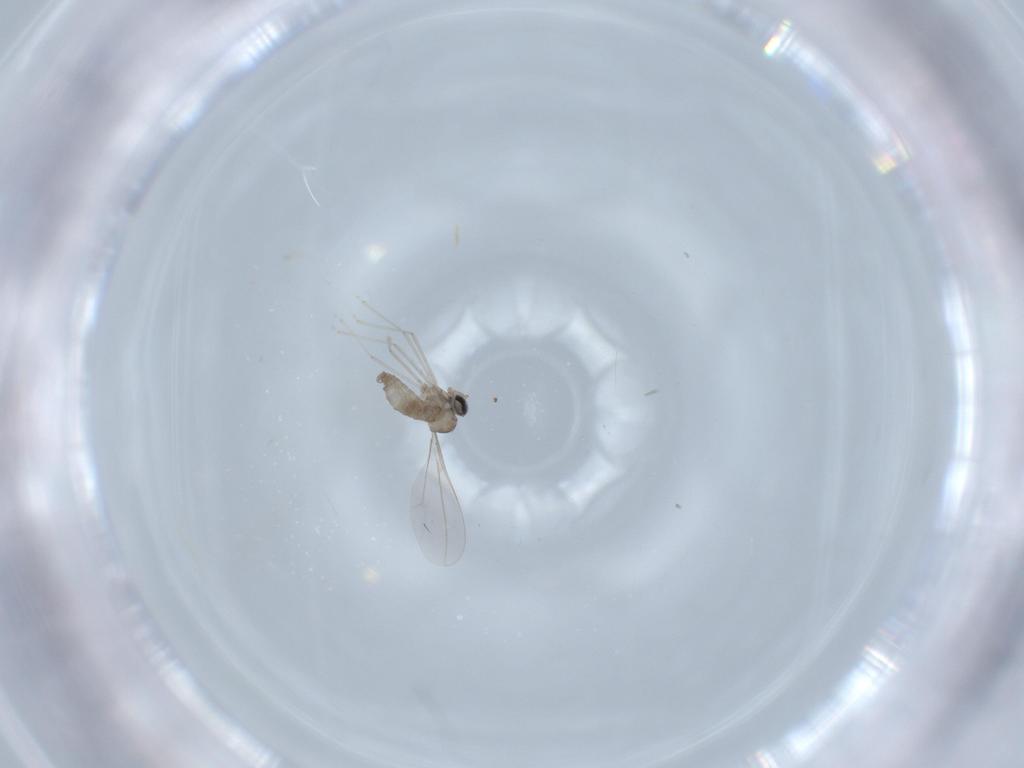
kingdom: Animalia
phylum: Arthropoda
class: Insecta
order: Diptera
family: Cecidomyiidae
